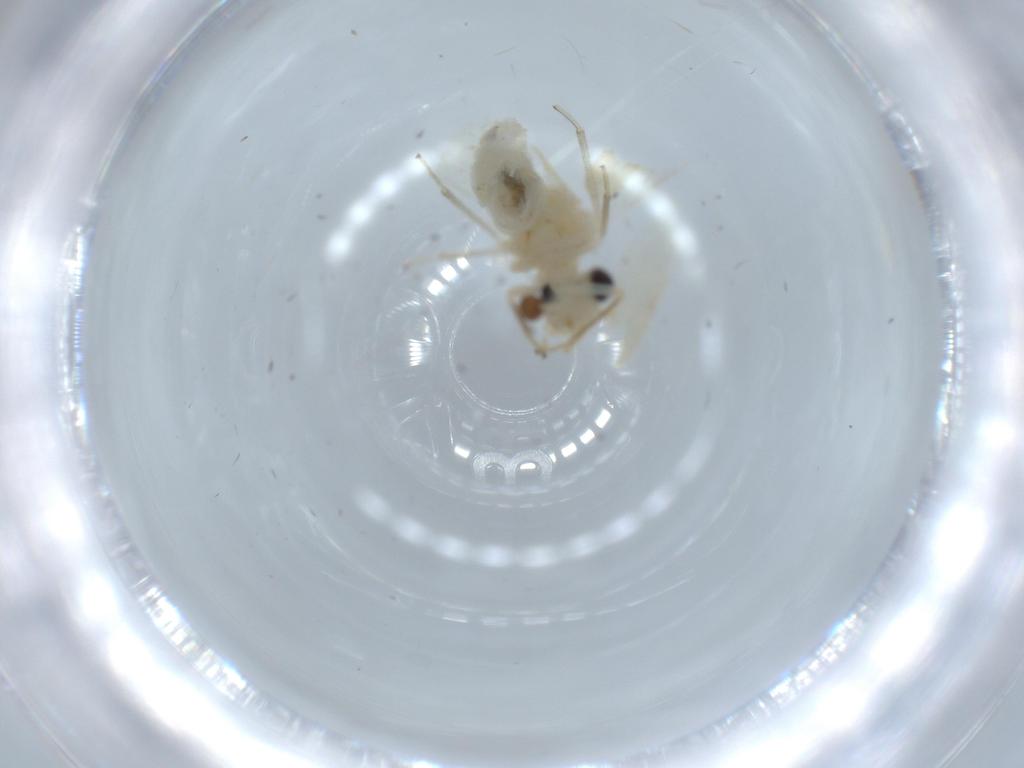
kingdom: Animalia
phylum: Arthropoda
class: Insecta
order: Psocodea
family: Caeciliusidae
